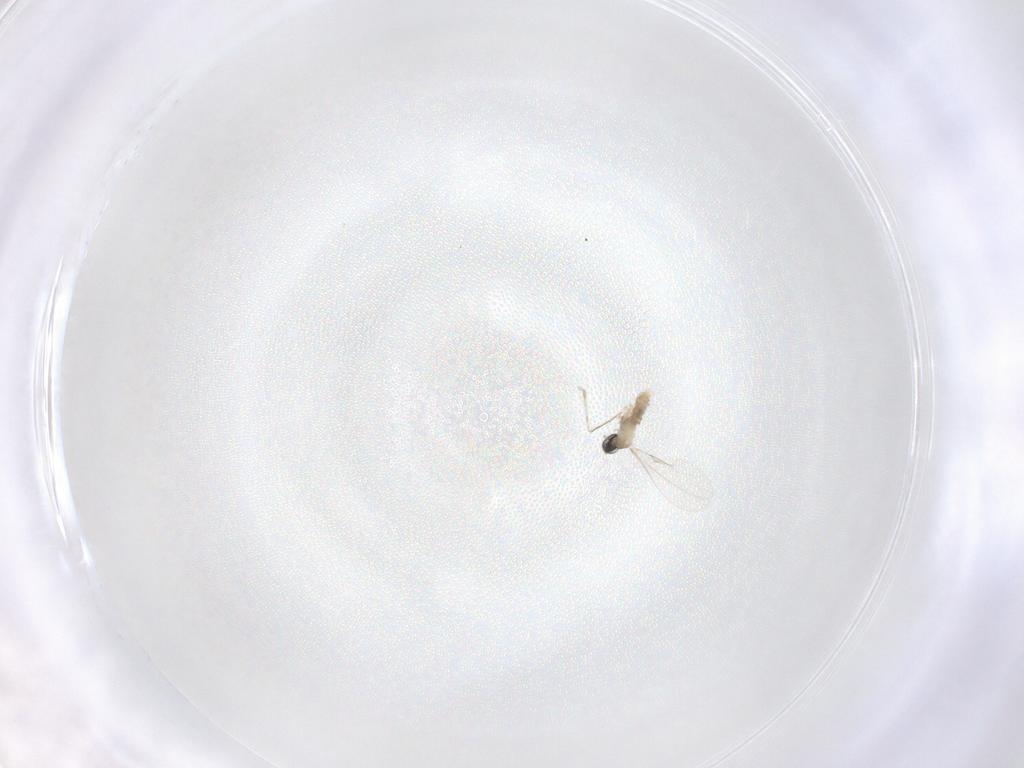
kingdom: Animalia
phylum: Arthropoda
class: Insecta
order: Diptera
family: Cecidomyiidae
